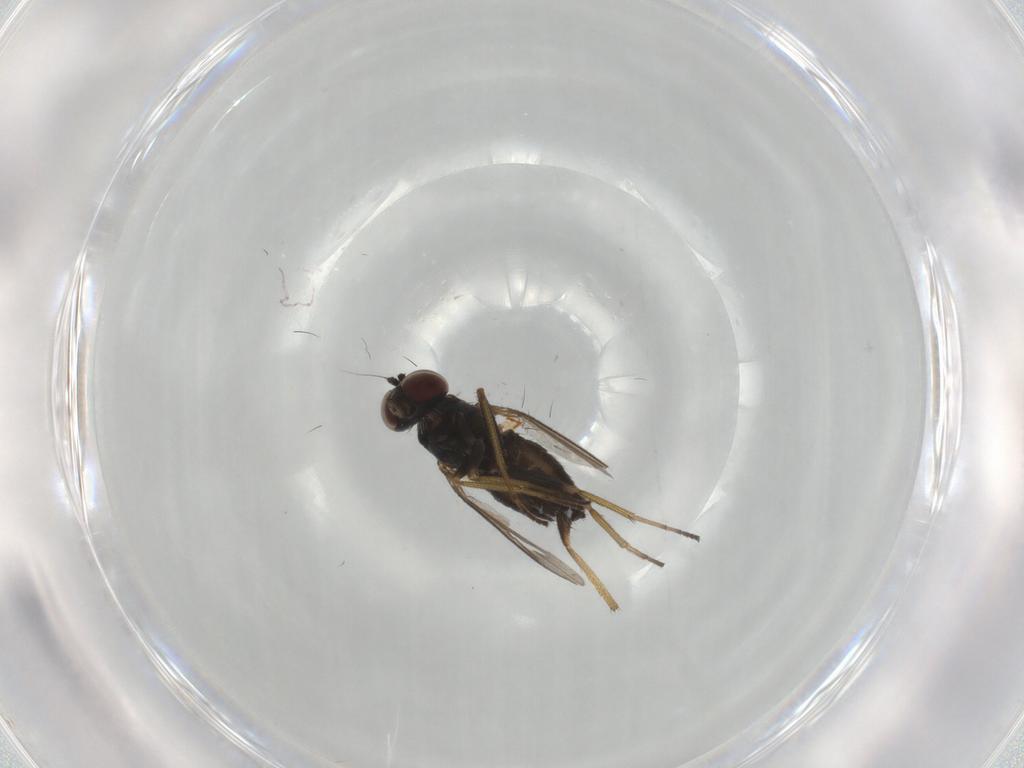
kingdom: Animalia
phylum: Arthropoda
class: Insecta
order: Diptera
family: Dolichopodidae
